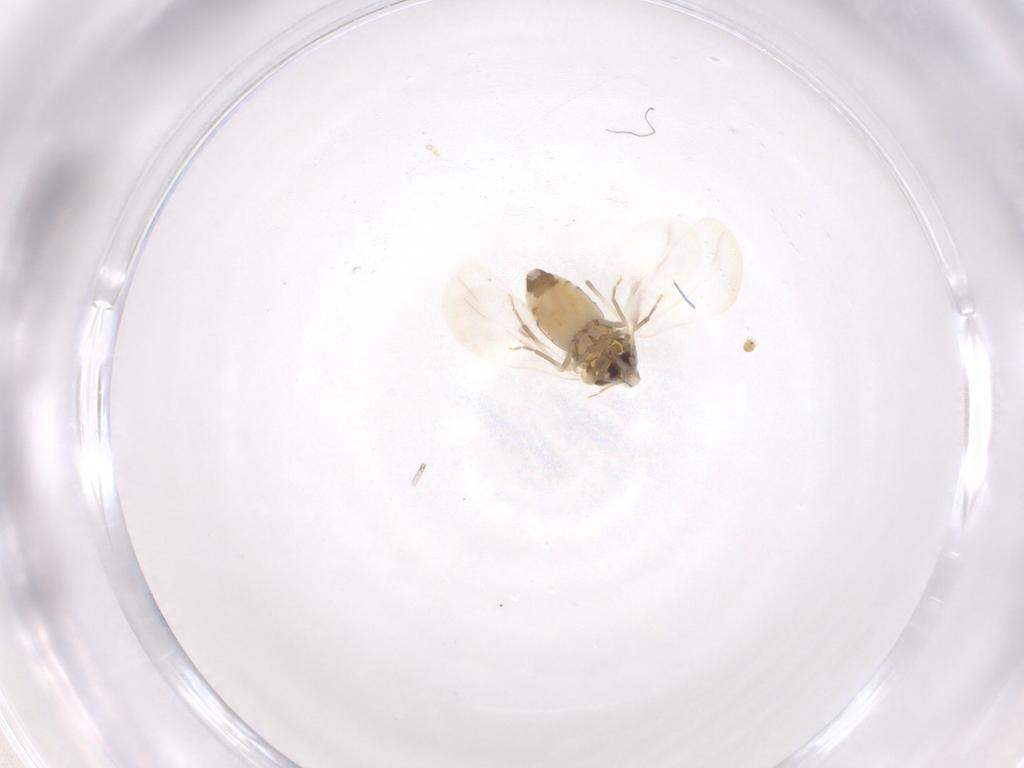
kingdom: Animalia
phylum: Arthropoda
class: Insecta
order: Hemiptera
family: Aleyrodidae
